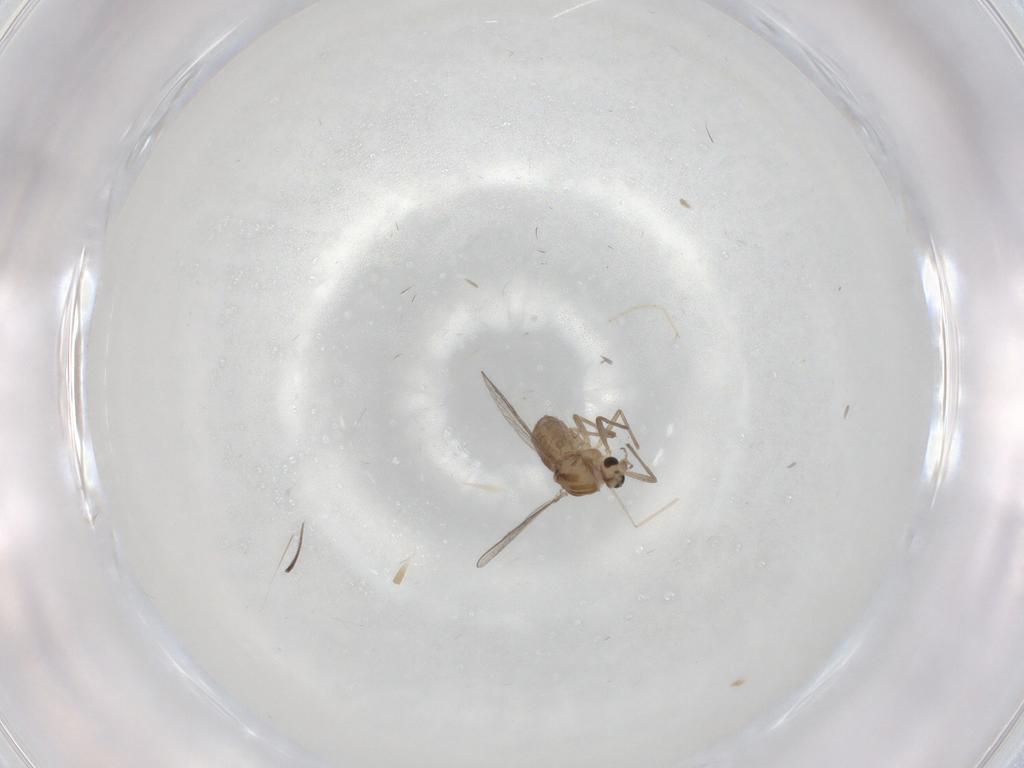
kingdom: Animalia
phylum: Arthropoda
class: Insecta
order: Diptera
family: Chironomidae
